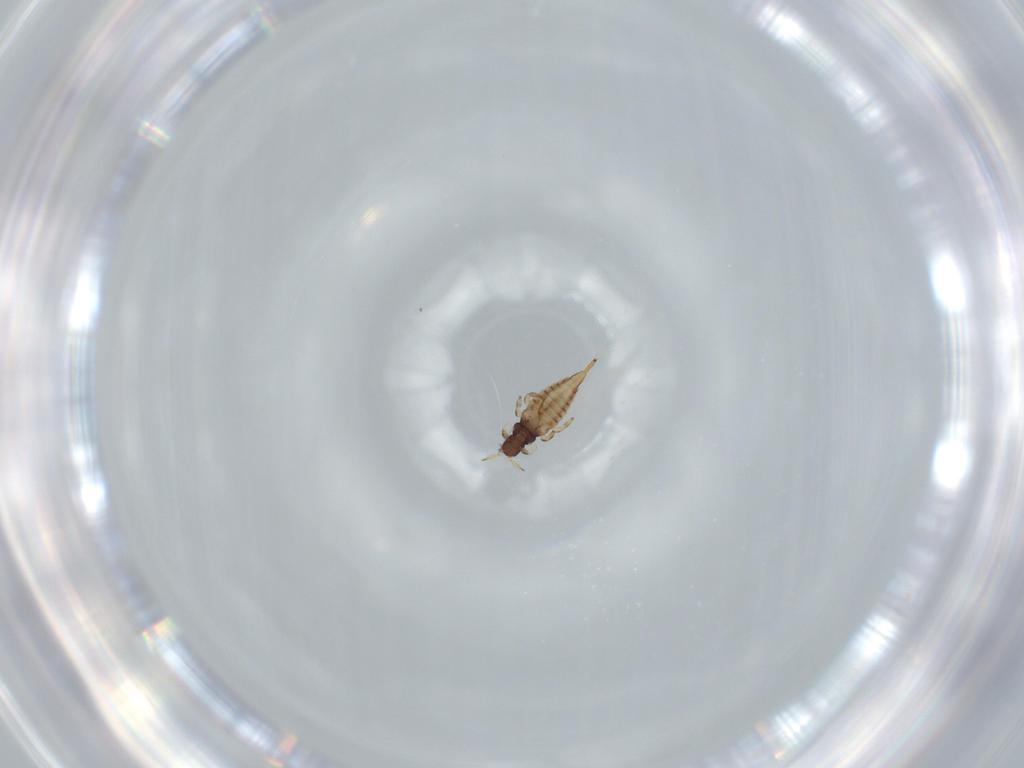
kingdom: Animalia
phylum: Arthropoda
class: Insecta
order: Thysanoptera
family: Phlaeothripidae
